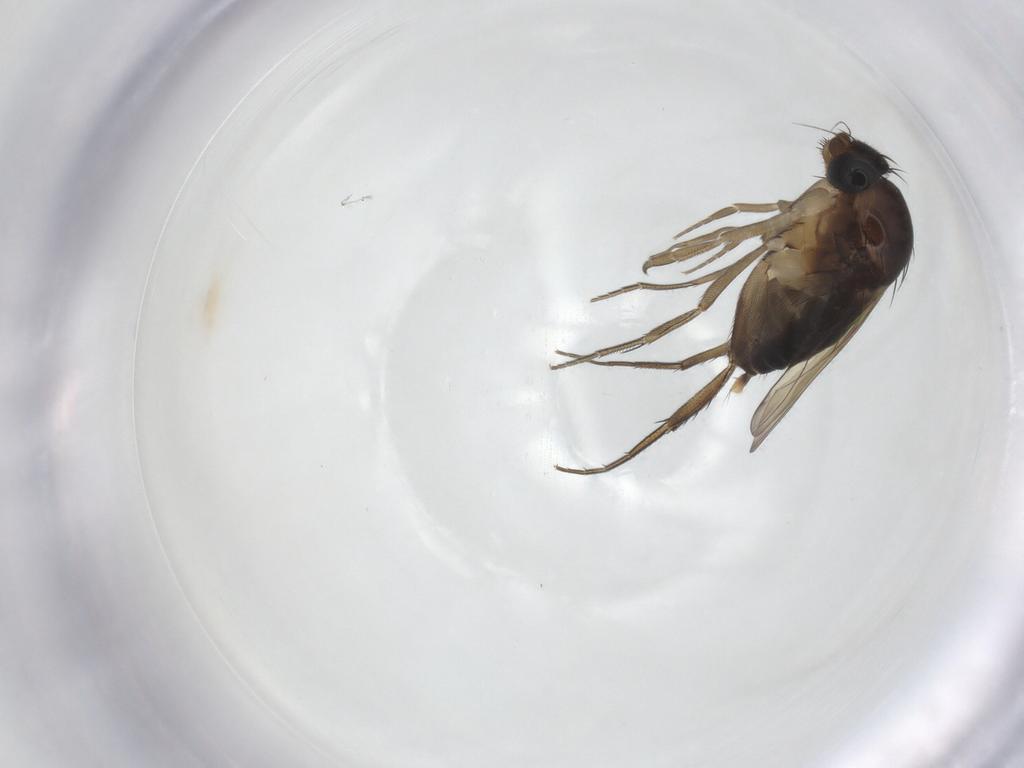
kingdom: Animalia
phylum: Arthropoda
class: Insecta
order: Diptera
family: Phoridae
